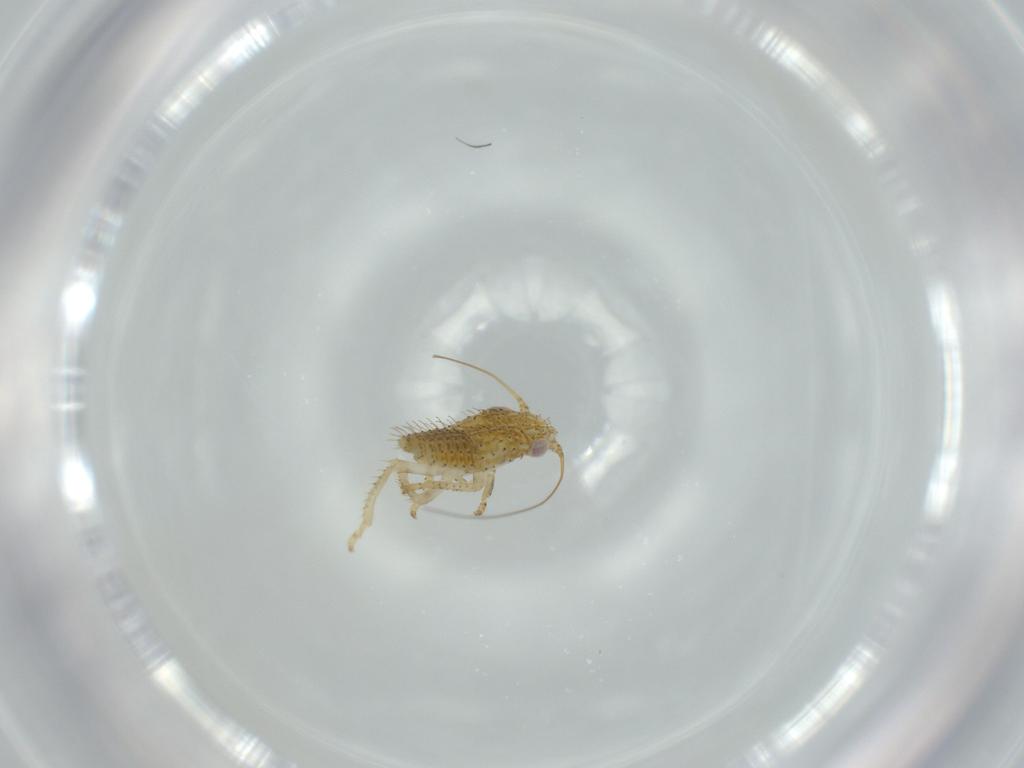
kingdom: Animalia
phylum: Arthropoda
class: Insecta
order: Hemiptera
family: Cicadellidae
